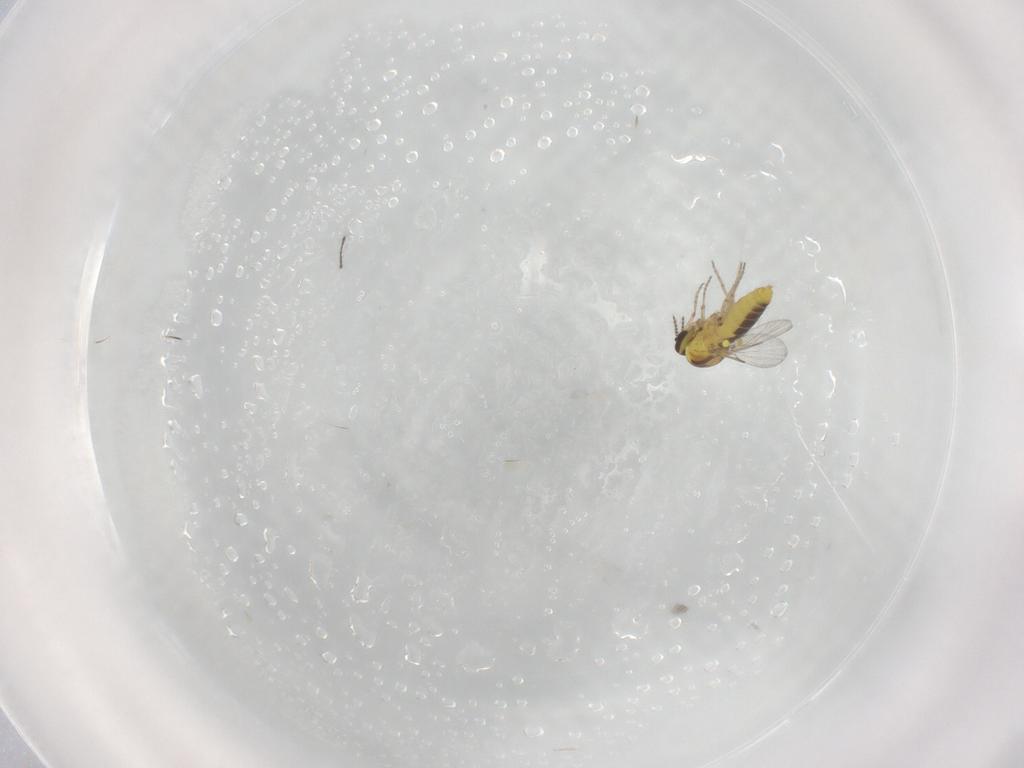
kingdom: Animalia
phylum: Arthropoda
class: Insecta
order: Diptera
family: Ceratopogonidae
